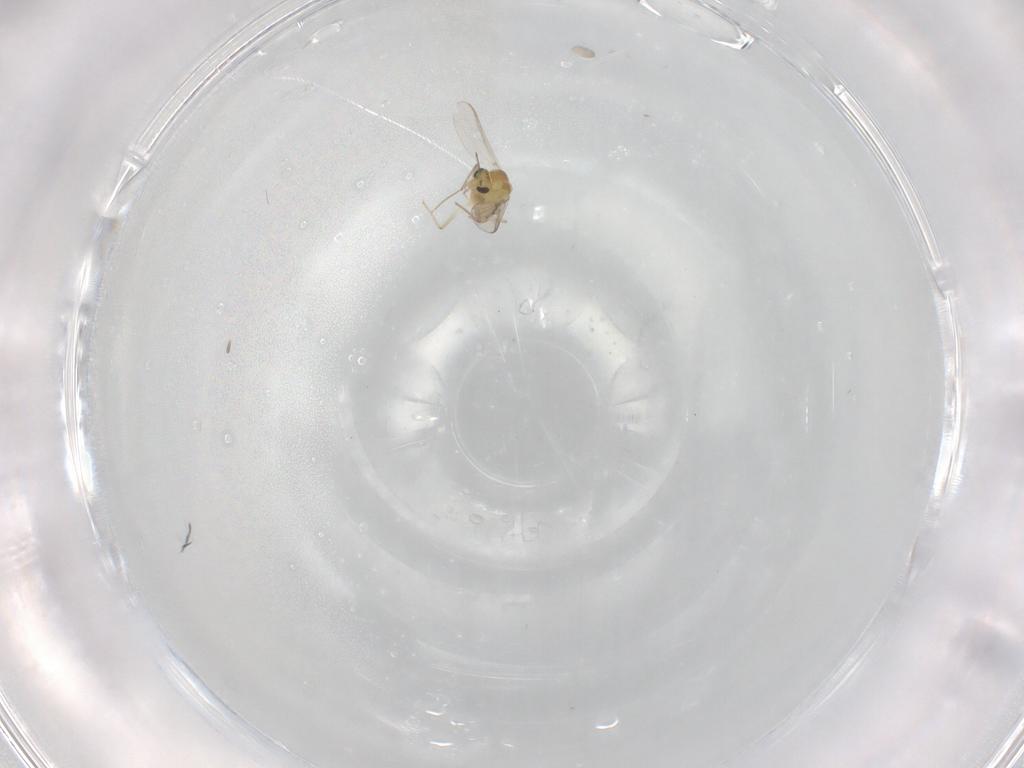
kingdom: Animalia
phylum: Arthropoda
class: Insecta
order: Diptera
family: Chironomidae
